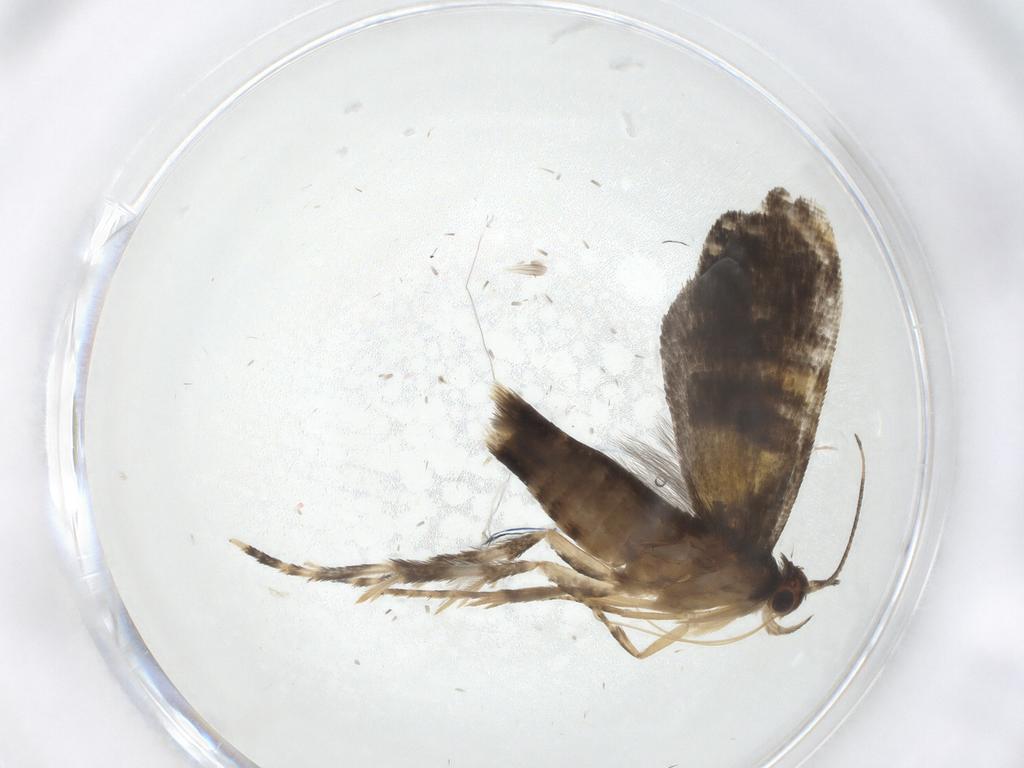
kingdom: Animalia
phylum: Arthropoda
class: Insecta
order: Lepidoptera
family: Glyphipterigidae
